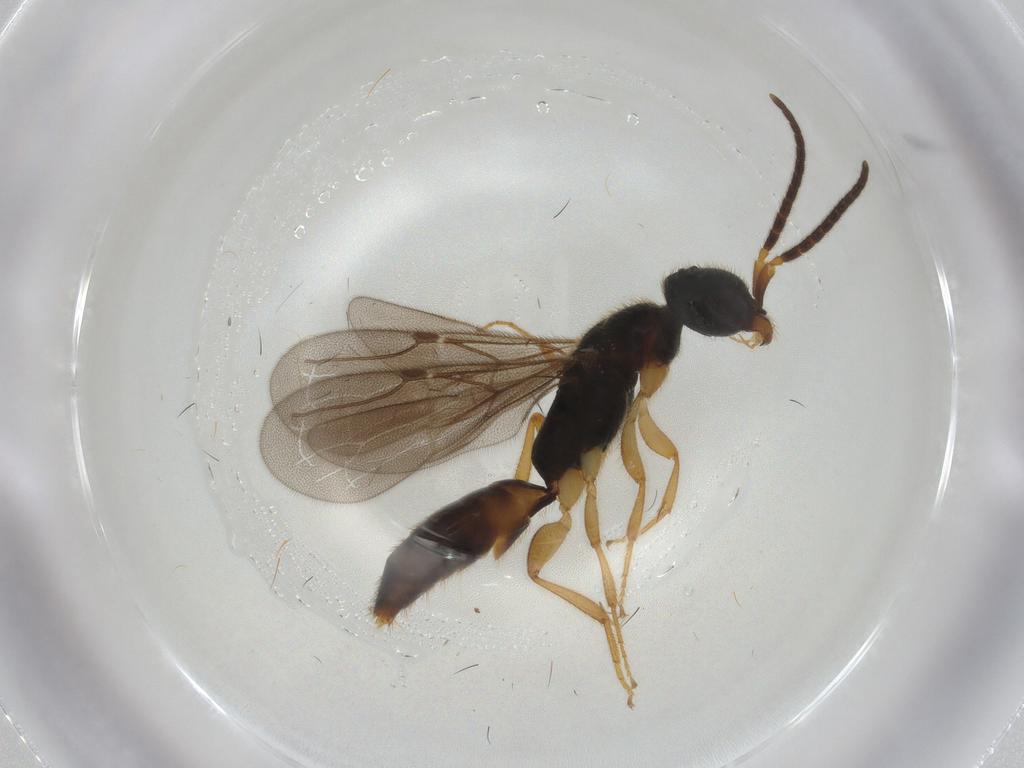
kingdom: Animalia
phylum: Arthropoda
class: Insecta
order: Hymenoptera
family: Bethylidae
